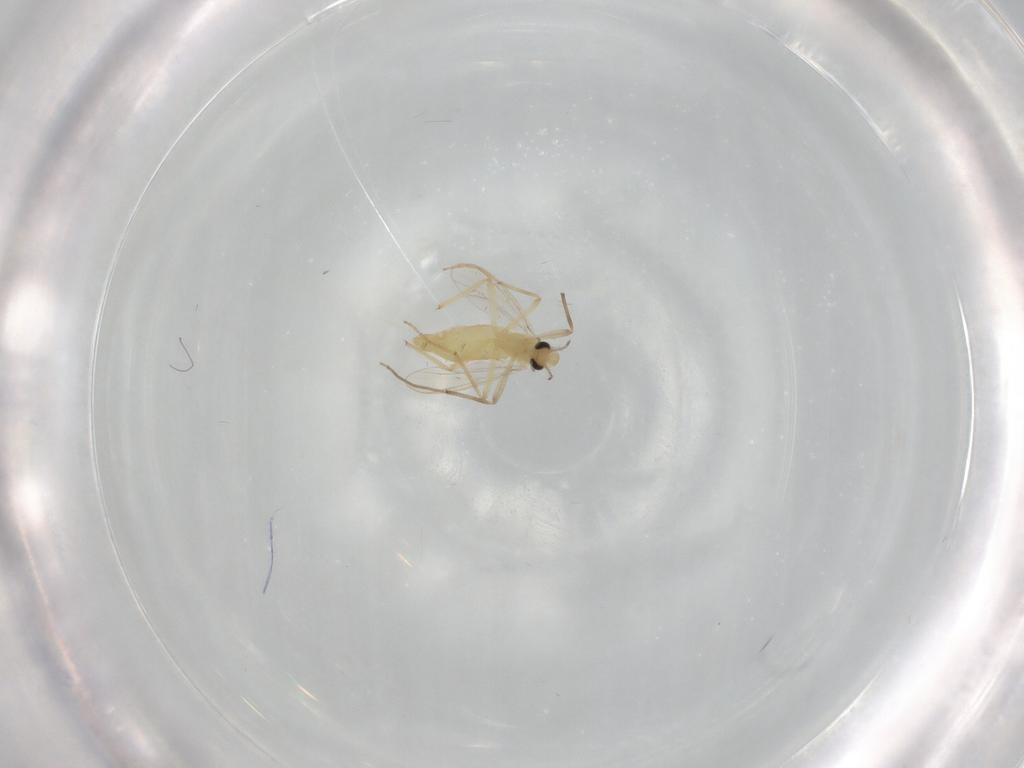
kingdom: Animalia
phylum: Arthropoda
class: Insecta
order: Diptera
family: Chironomidae
